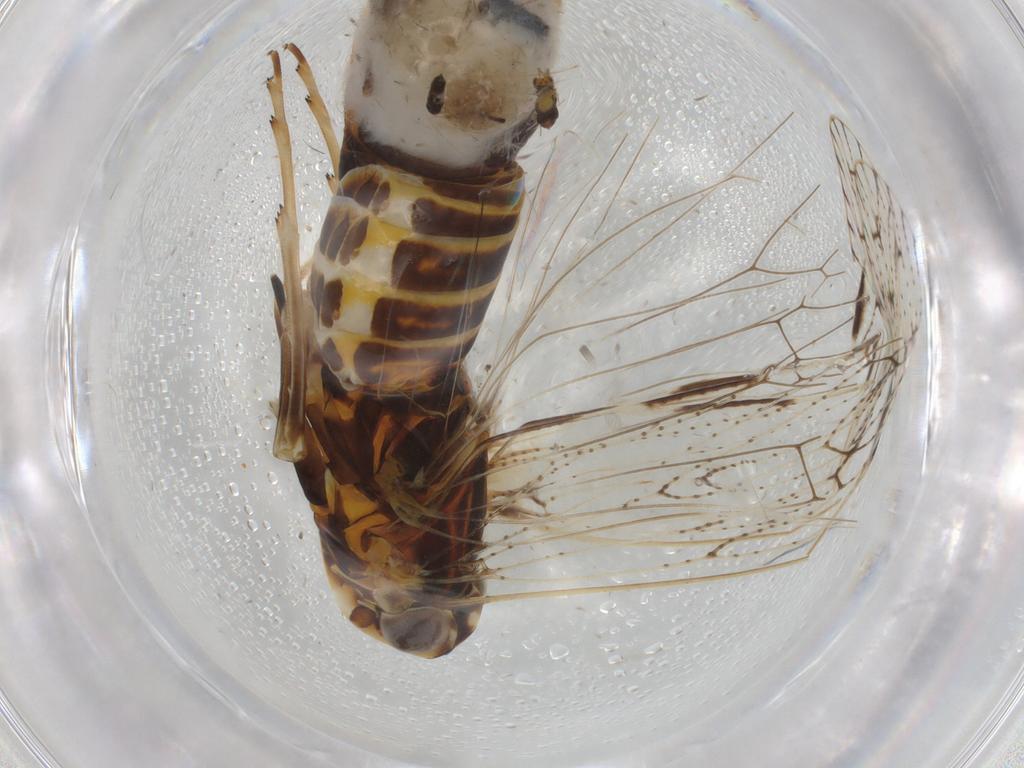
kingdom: Animalia
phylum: Arthropoda
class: Insecta
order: Hemiptera
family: Cixiidae
